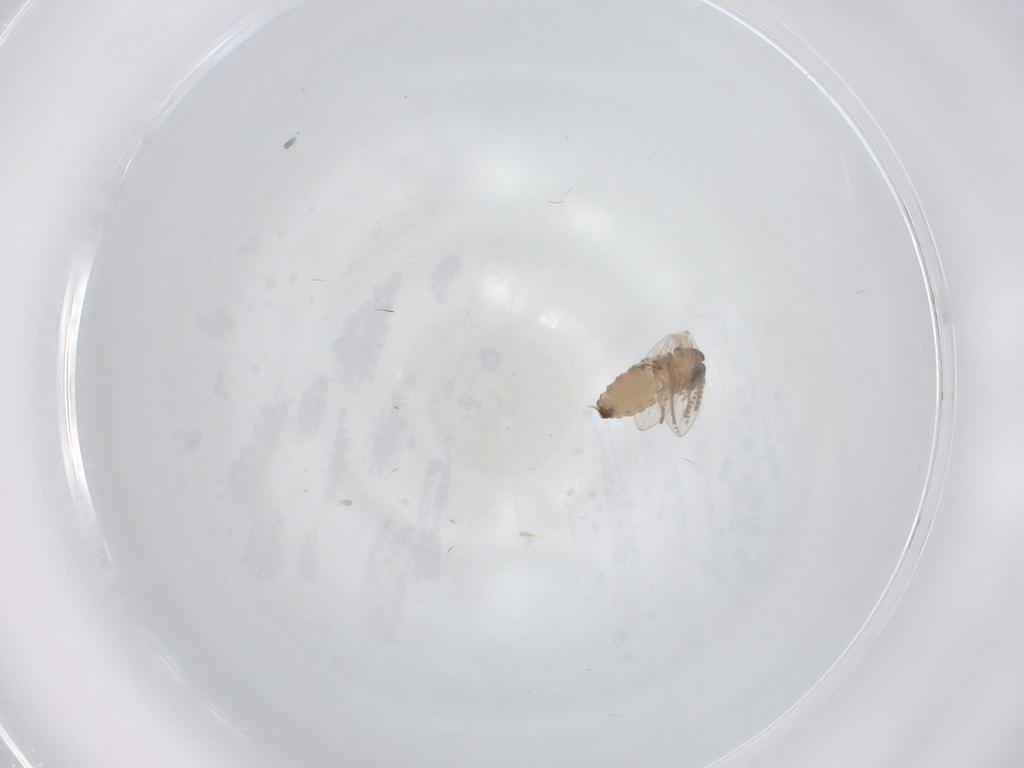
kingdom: Animalia
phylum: Arthropoda
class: Insecta
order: Diptera
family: Psychodidae
